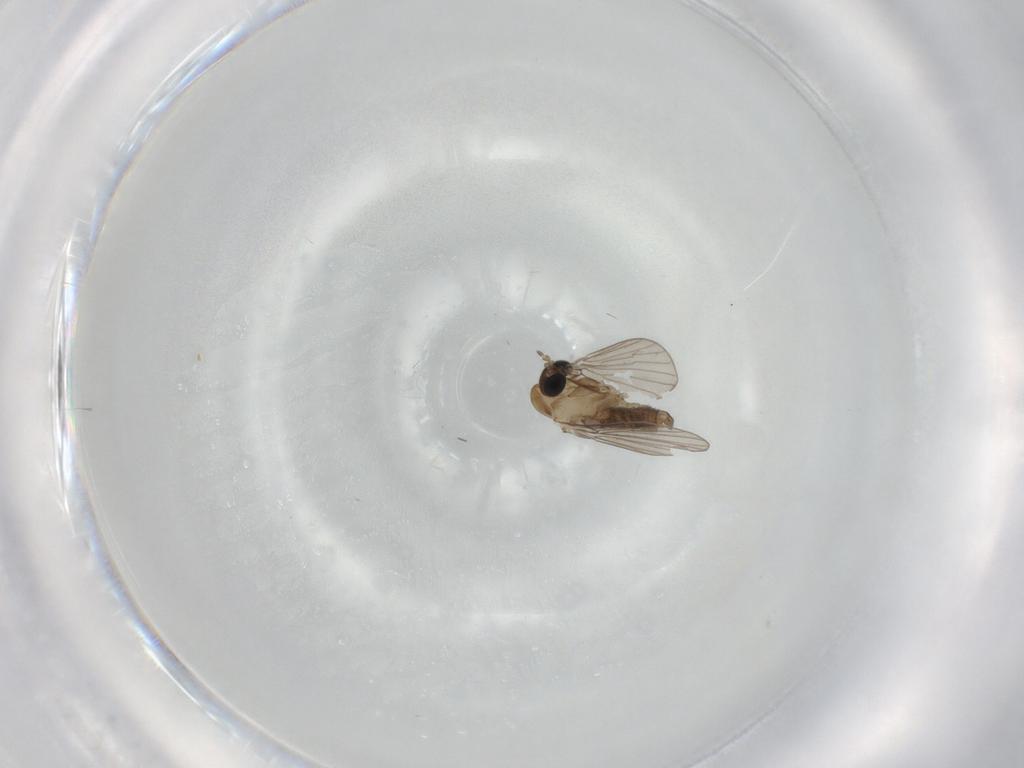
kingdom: Animalia
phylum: Arthropoda
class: Insecta
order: Diptera
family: Psychodidae
